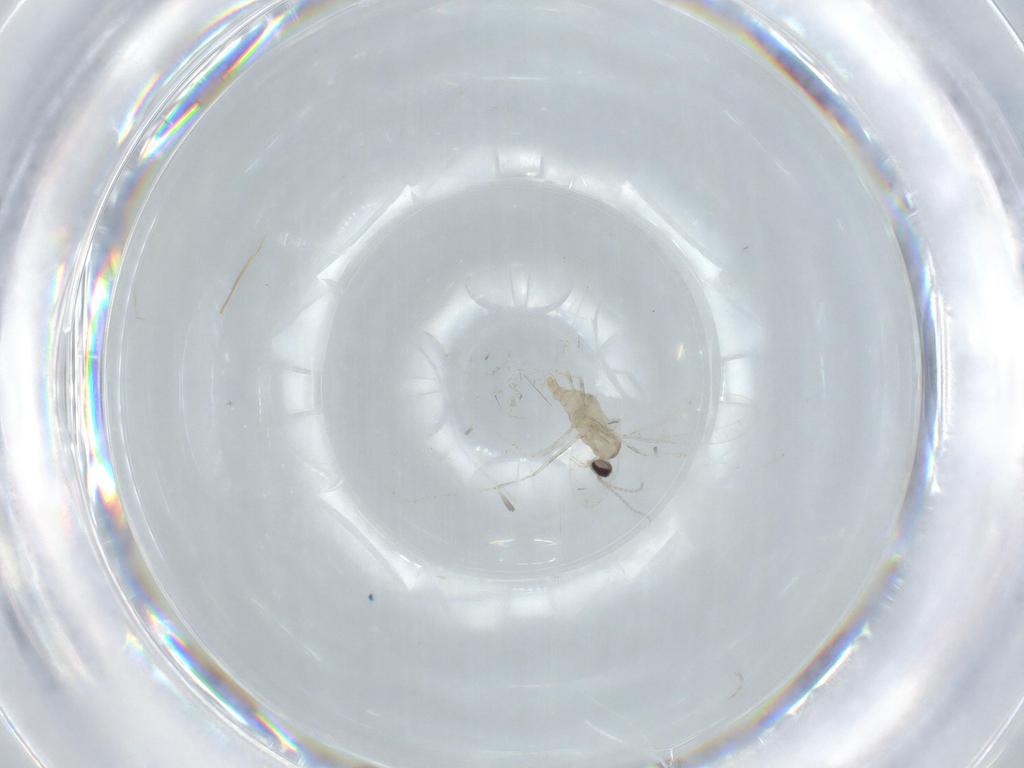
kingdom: Animalia
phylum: Arthropoda
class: Insecta
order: Diptera
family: Cecidomyiidae
